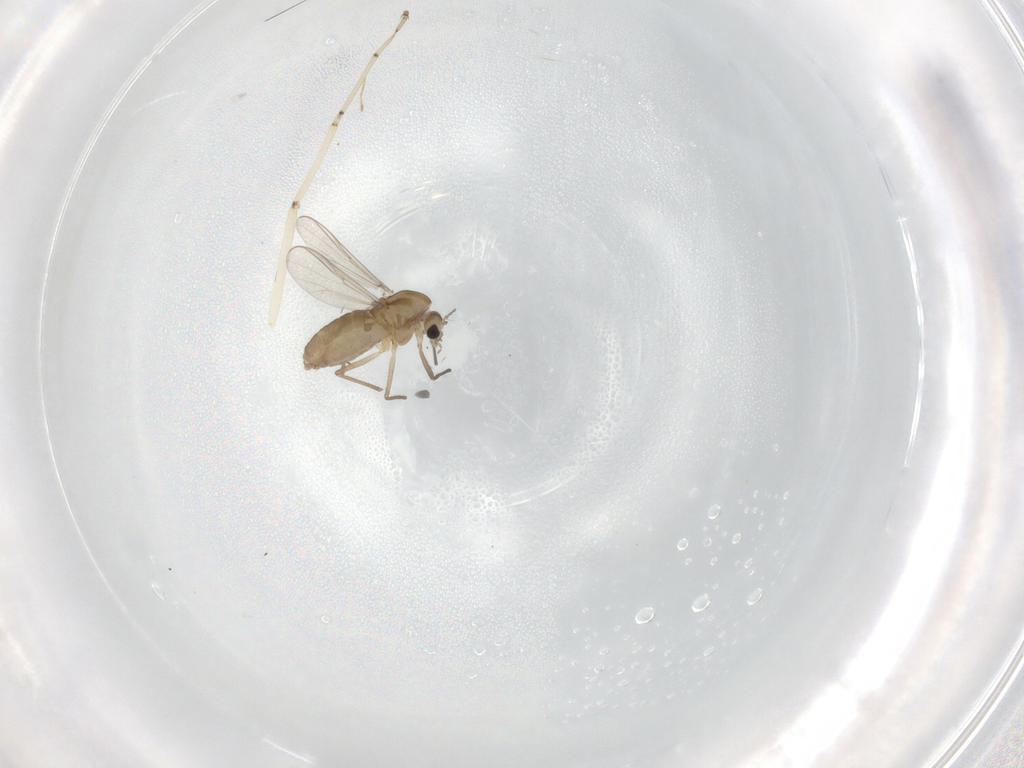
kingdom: Animalia
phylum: Arthropoda
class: Insecta
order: Diptera
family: Chironomidae
